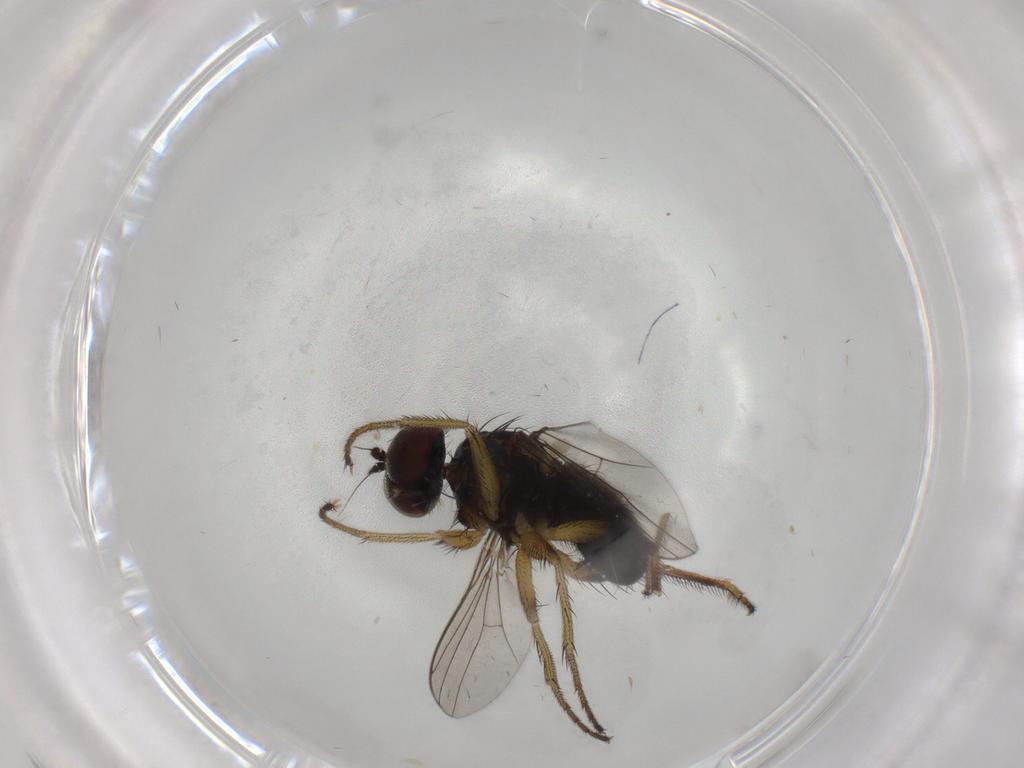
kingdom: Animalia
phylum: Arthropoda
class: Insecta
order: Diptera
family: Dolichopodidae
